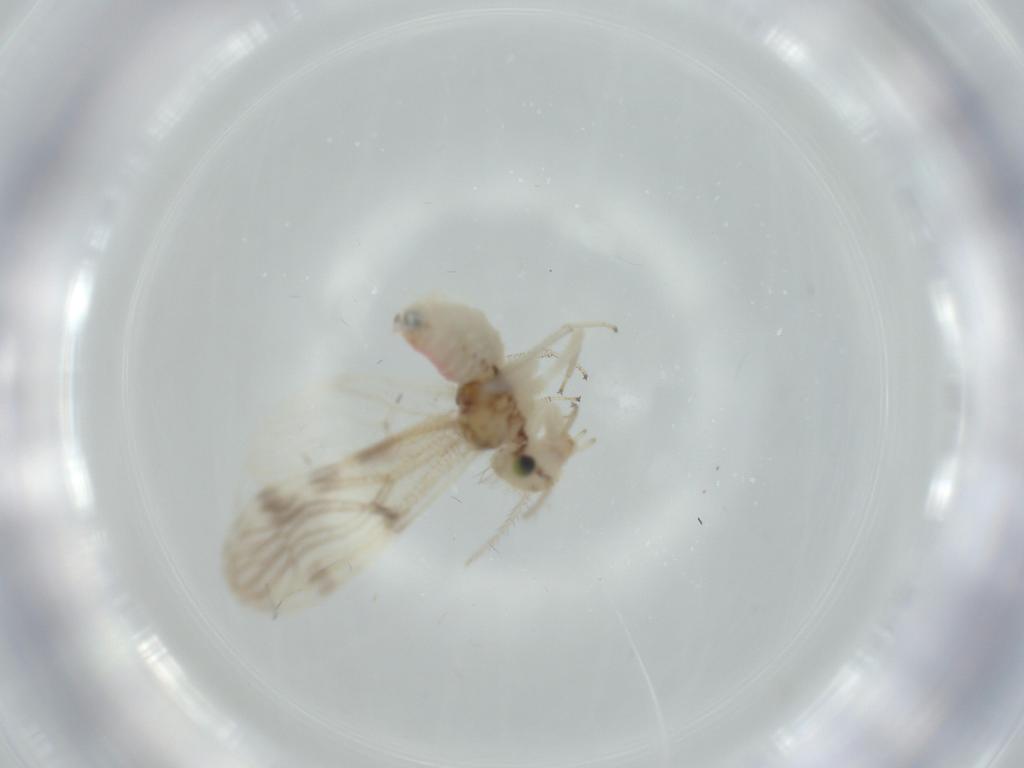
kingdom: Animalia
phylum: Arthropoda
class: Insecta
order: Psocodea
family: Pseudocaeciliidae
